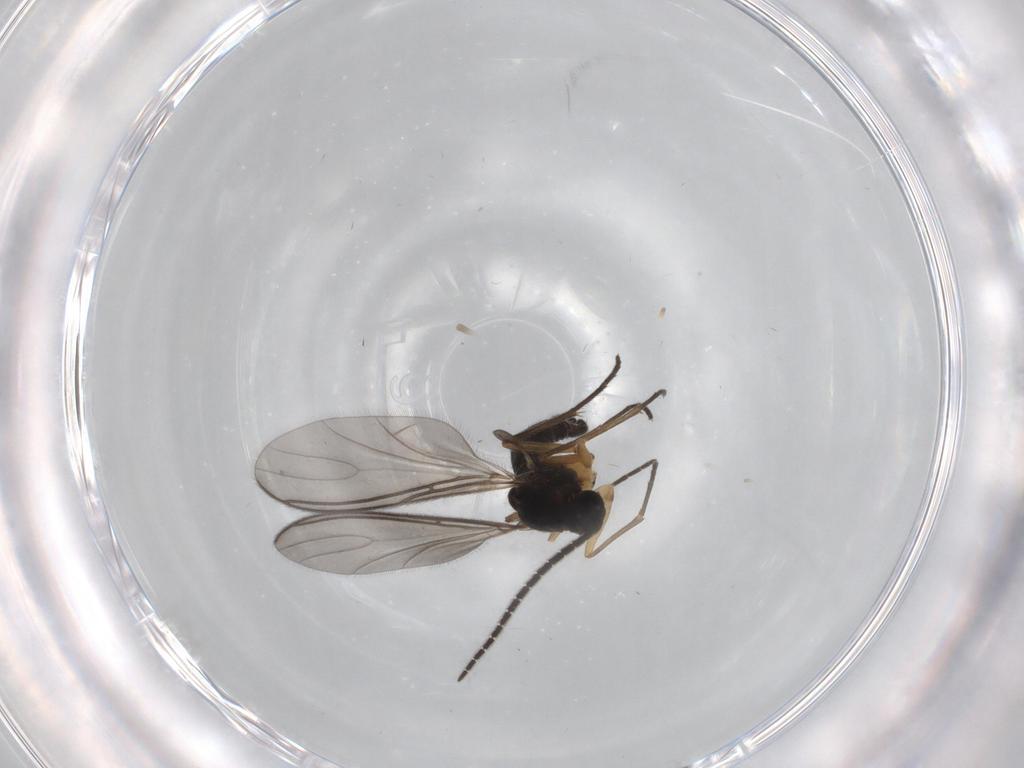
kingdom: Animalia
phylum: Arthropoda
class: Insecta
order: Diptera
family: Sciaridae
